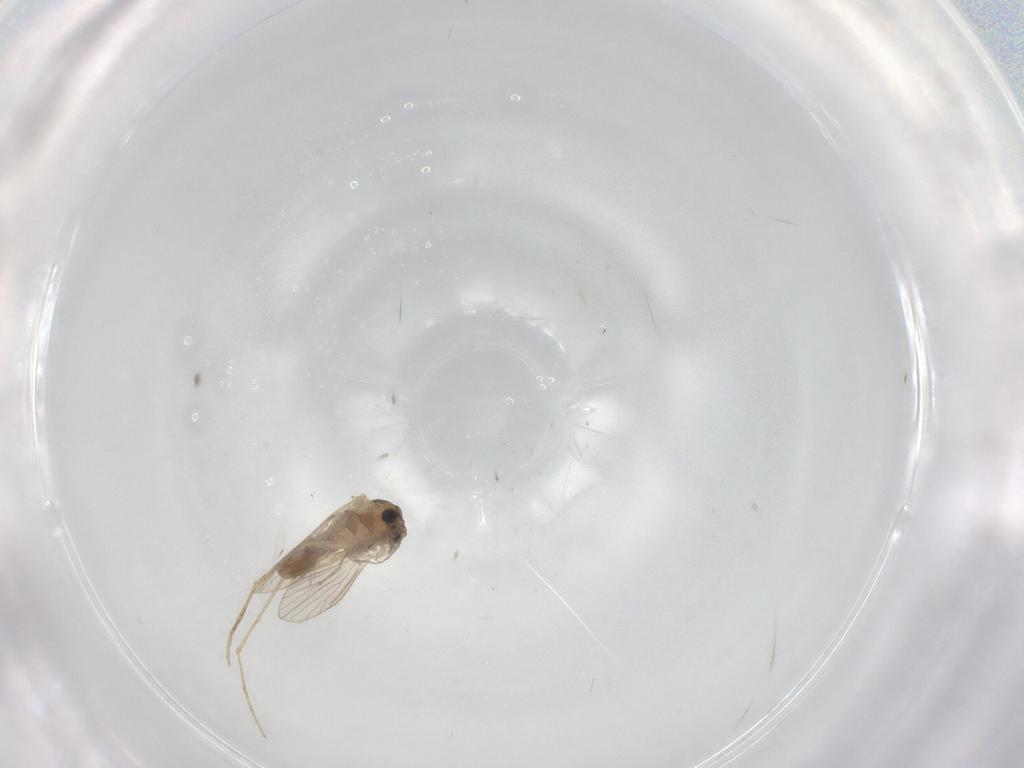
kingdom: Animalia
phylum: Arthropoda
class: Insecta
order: Diptera
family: Psychodidae
